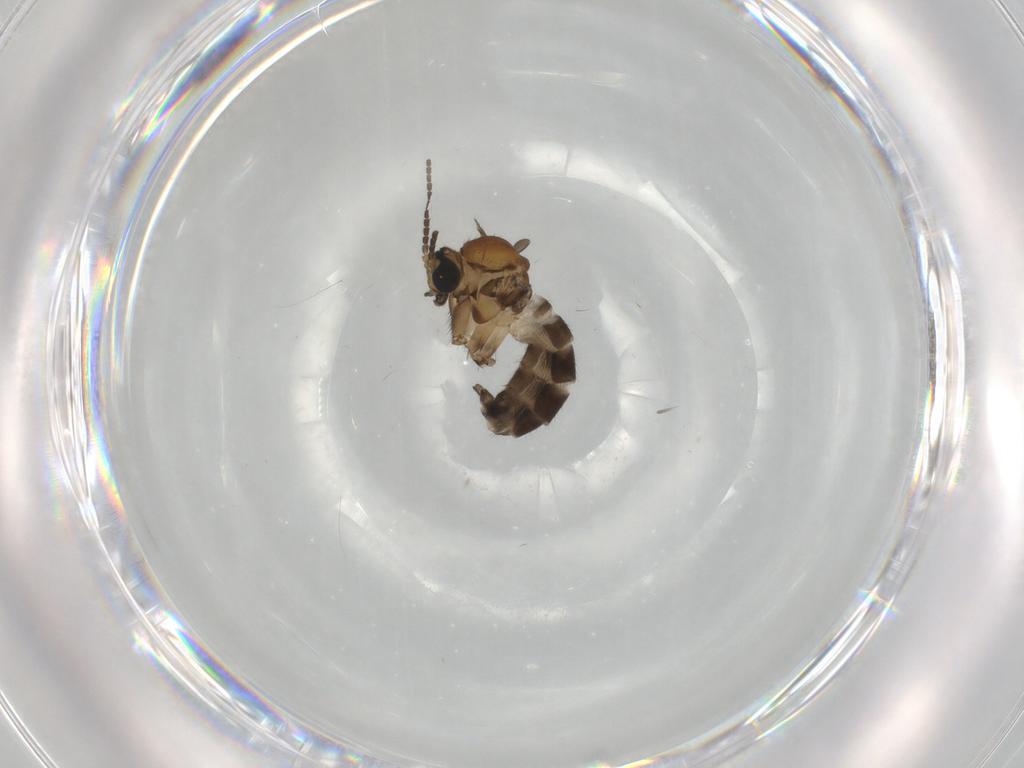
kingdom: Animalia
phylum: Arthropoda
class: Insecta
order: Diptera
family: Sciaridae
